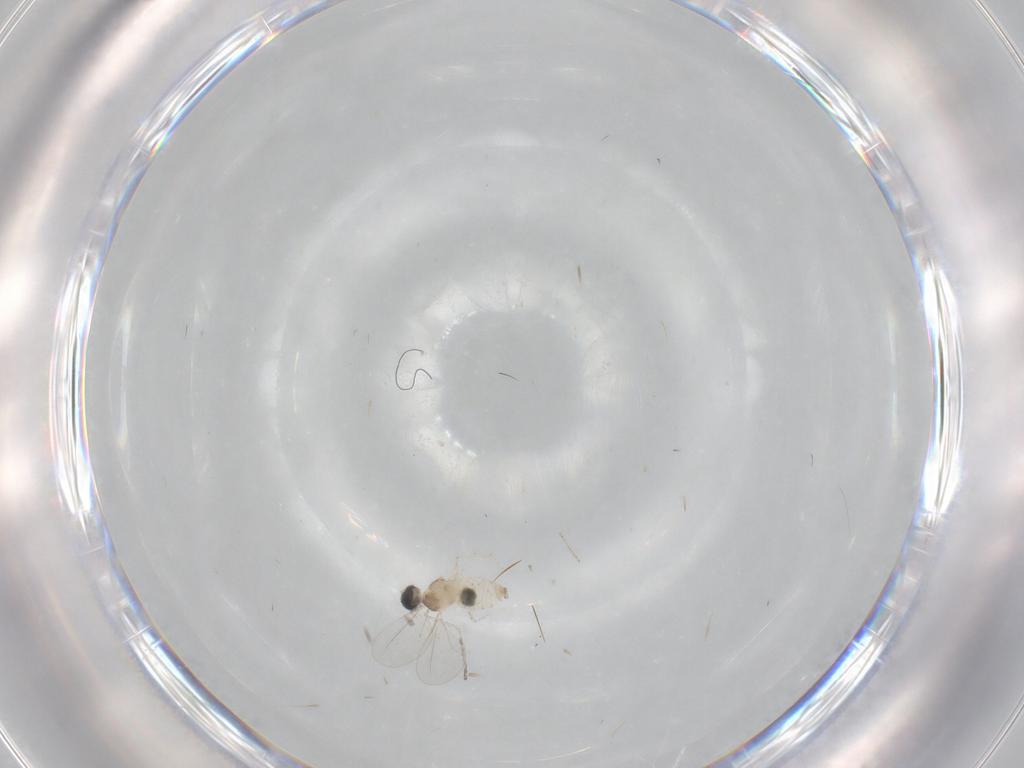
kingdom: Animalia
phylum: Arthropoda
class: Insecta
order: Diptera
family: Cecidomyiidae
